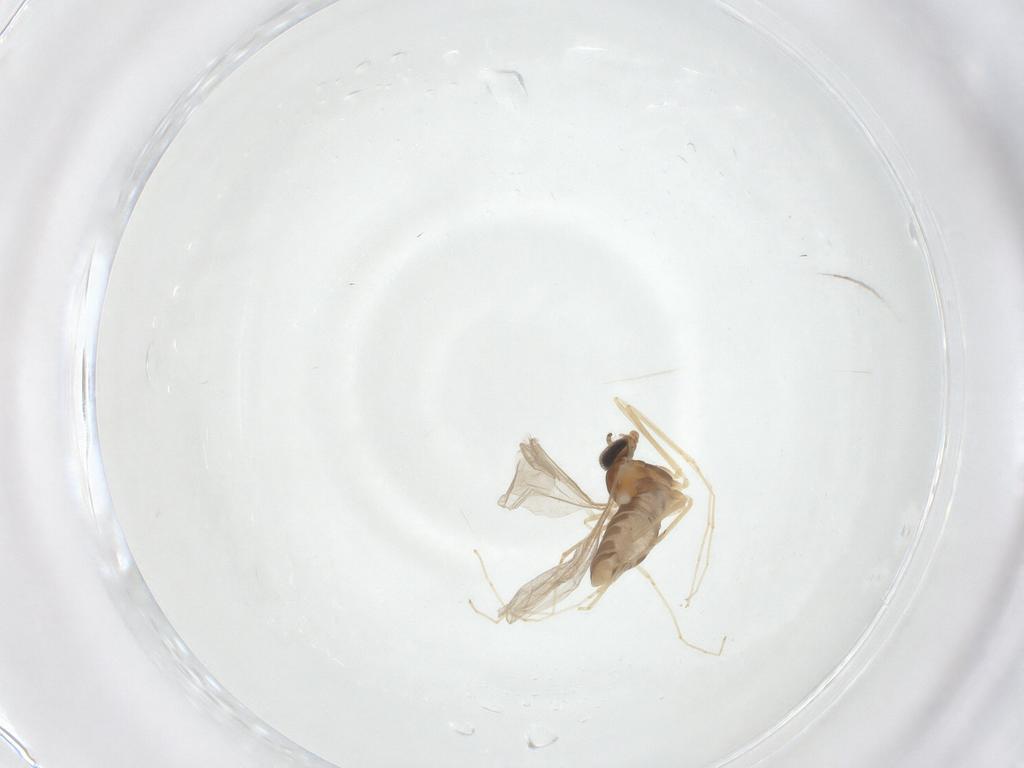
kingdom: Animalia
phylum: Arthropoda
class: Insecta
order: Diptera
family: Cecidomyiidae
